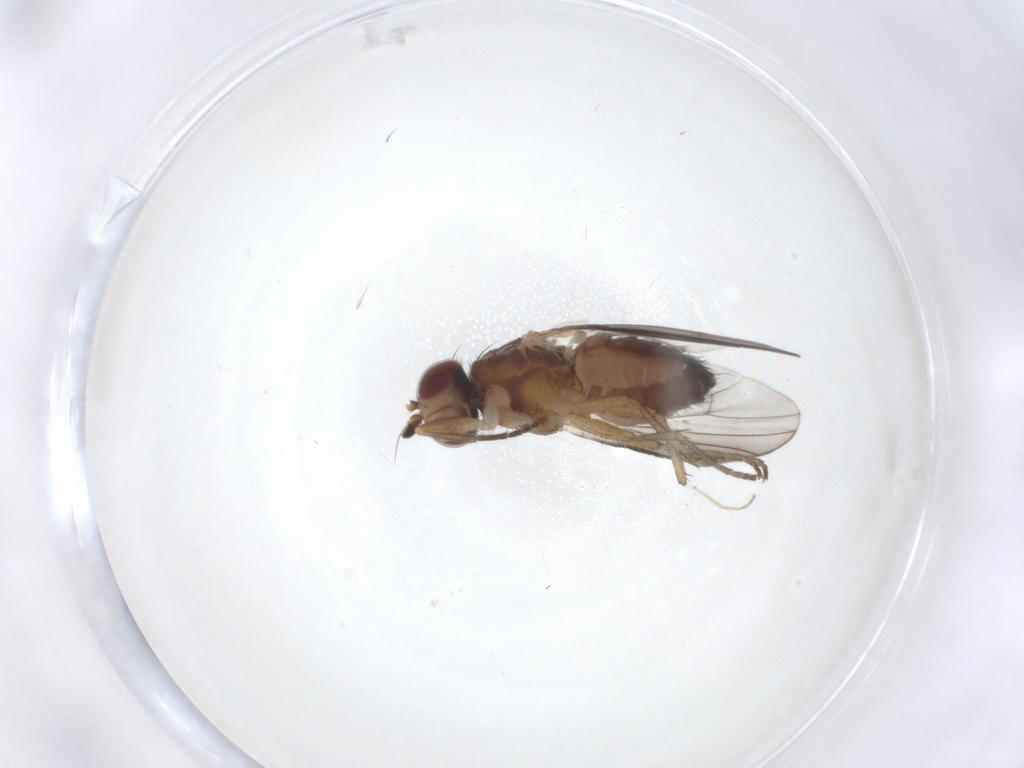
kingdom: Animalia
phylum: Arthropoda
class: Insecta
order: Diptera
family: Heleomyzidae
